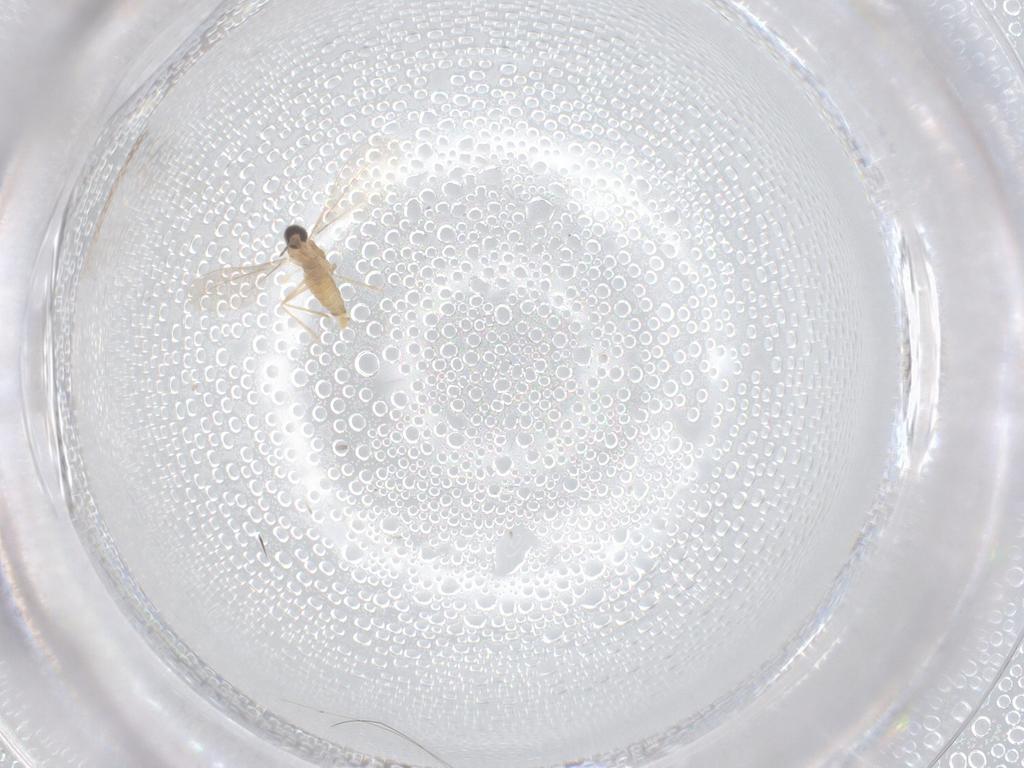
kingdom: Animalia
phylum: Arthropoda
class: Insecta
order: Diptera
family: Cecidomyiidae
